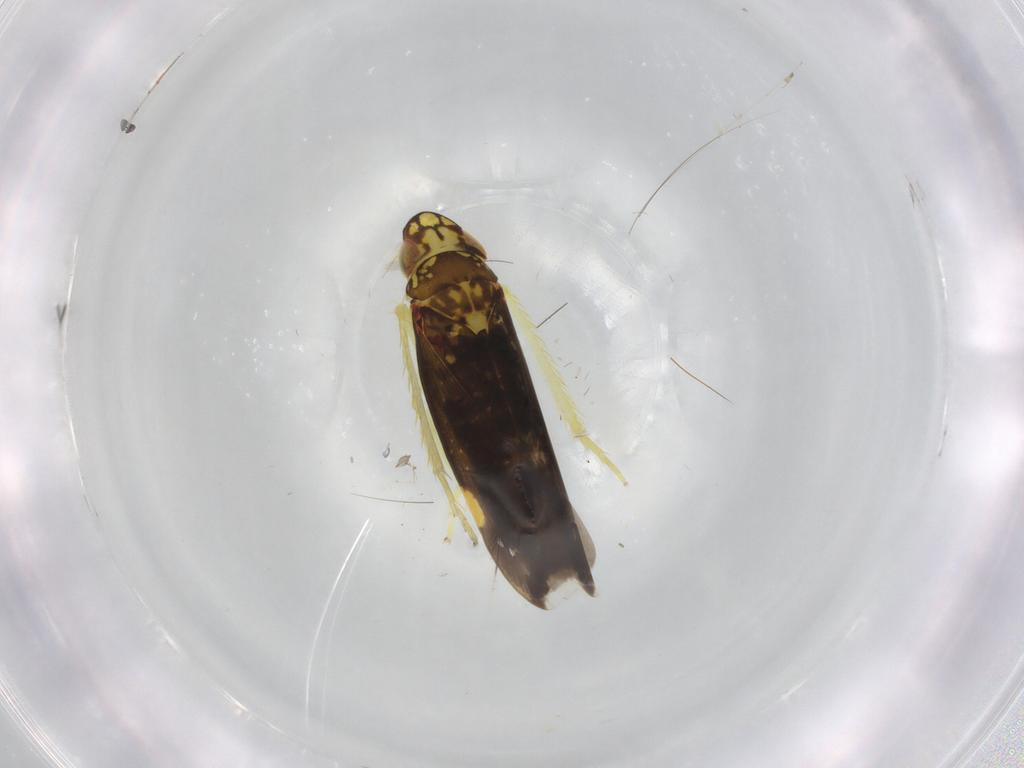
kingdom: Animalia
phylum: Arthropoda
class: Insecta
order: Hemiptera
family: Cicadellidae
